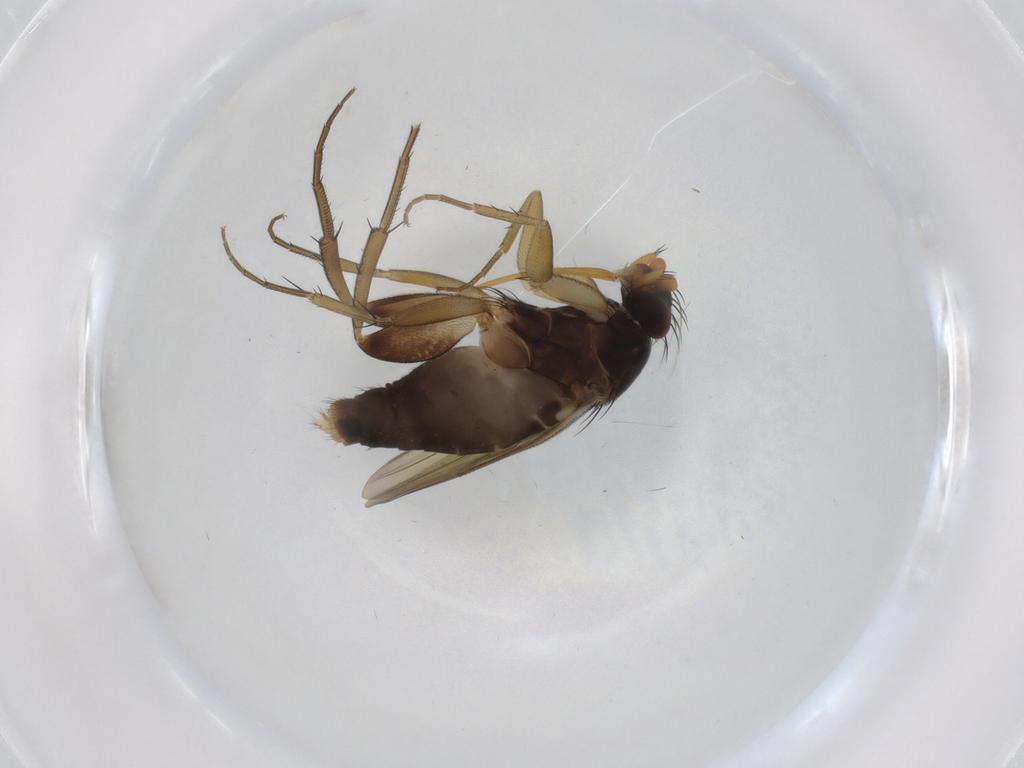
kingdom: Animalia
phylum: Arthropoda
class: Insecta
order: Diptera
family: Phoridae
